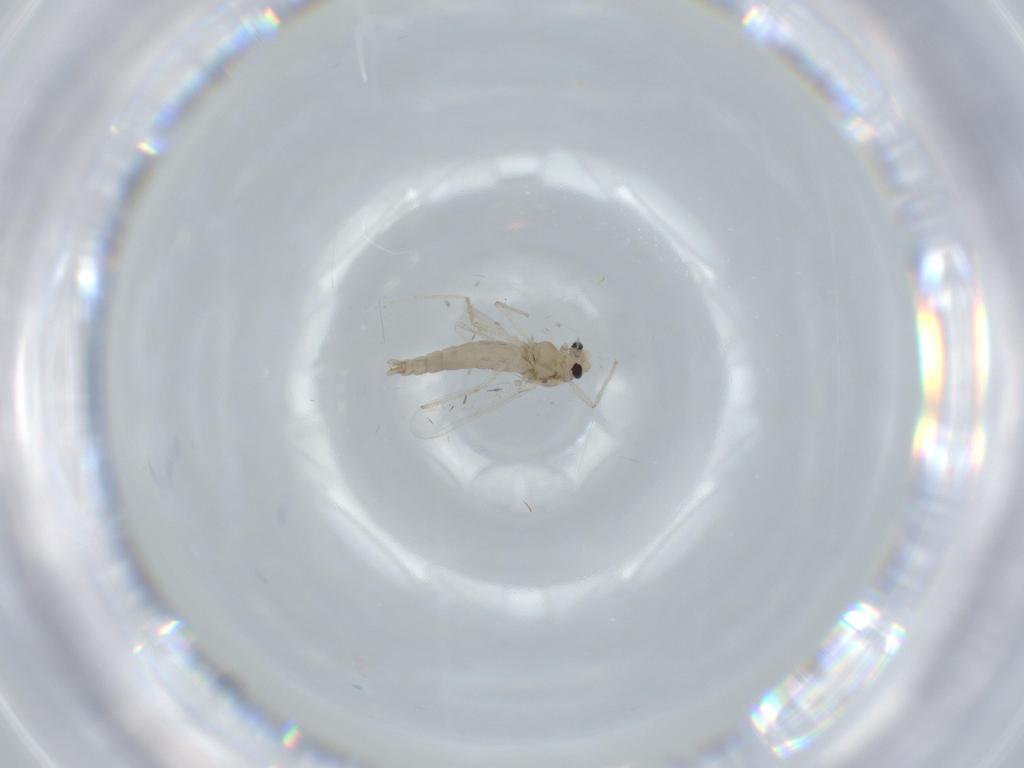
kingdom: Animalia
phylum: Arthropoda
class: Insecta
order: Diptera
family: Chironomidae
